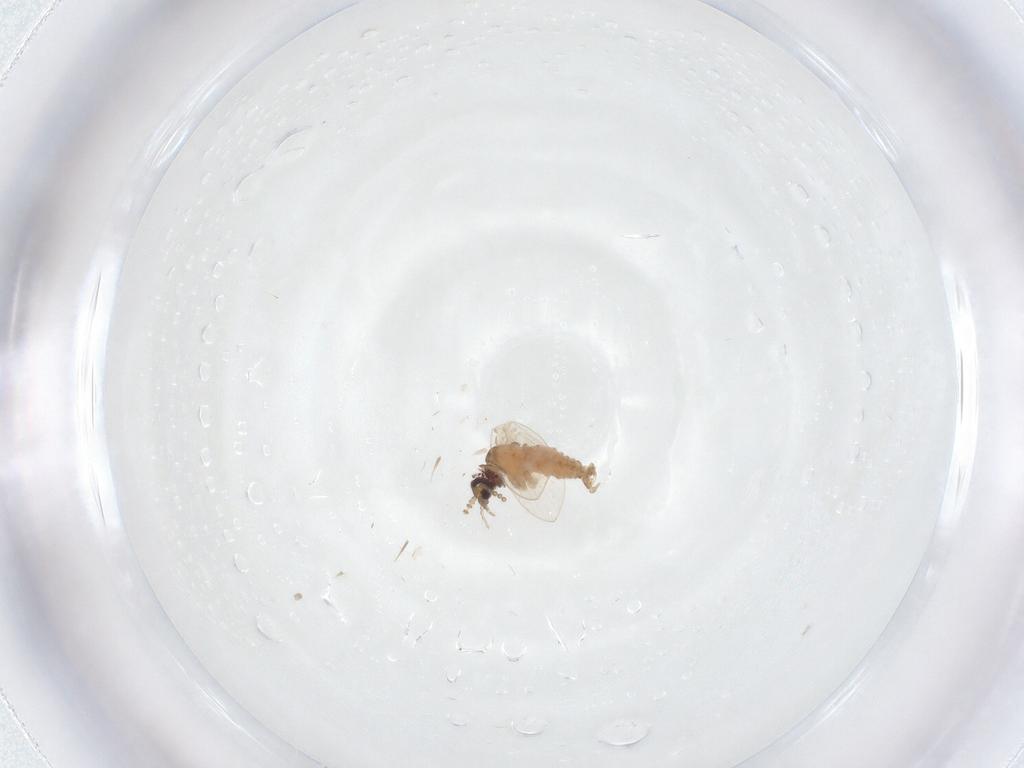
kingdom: Animalia
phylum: Arthropoda
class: Insecta
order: Diptera
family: Psychodidae
